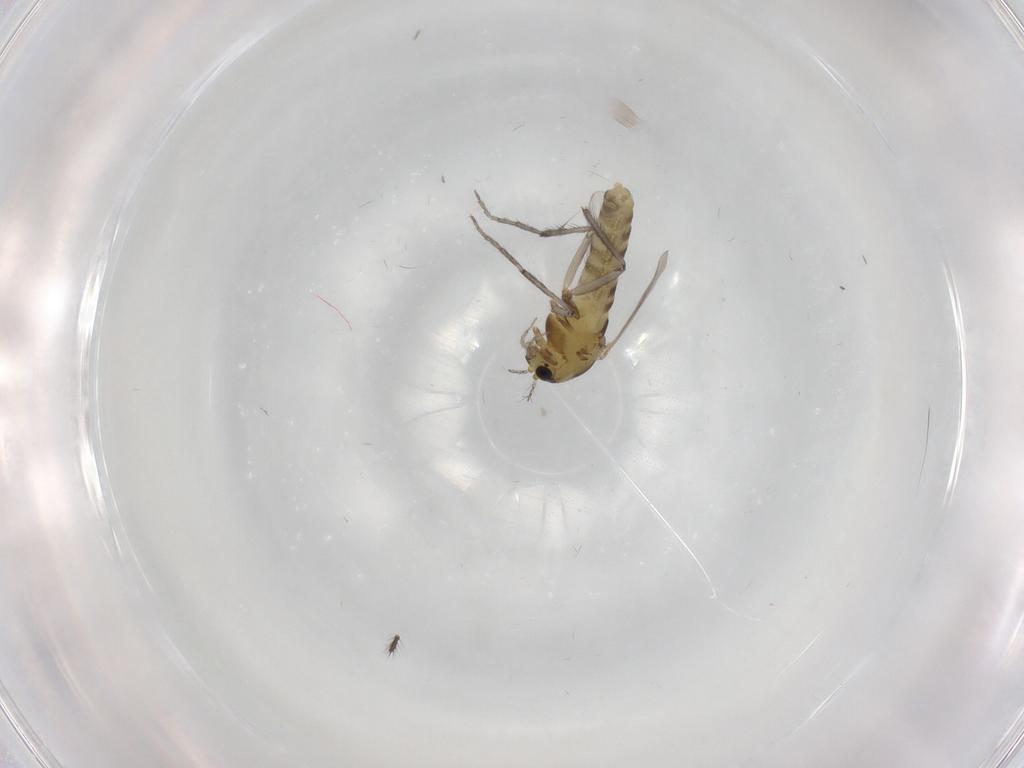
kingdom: Animalia
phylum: Arthropoda
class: Insecta
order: Diptera
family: Chironomidae
